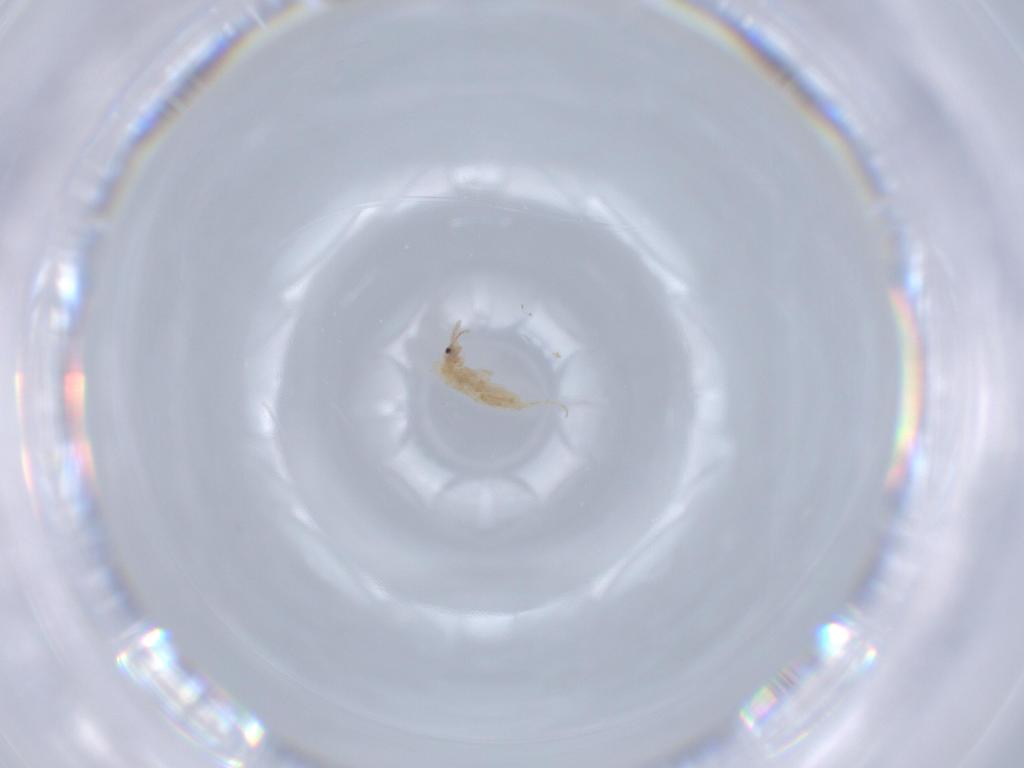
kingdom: Animalia
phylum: Arthropoda
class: Collembola
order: Entomobryomorpha
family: Entomobryidae
